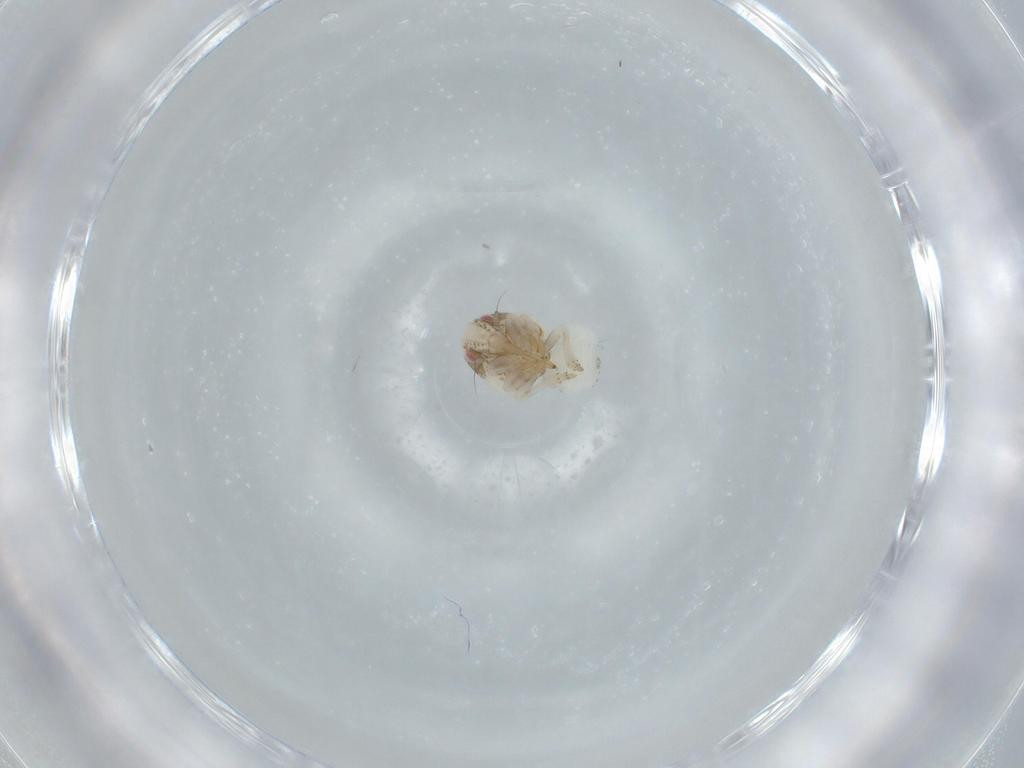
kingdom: Animalia
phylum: Arthropoda
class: Insecta
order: Hemiptera
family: Acanaloniidae
